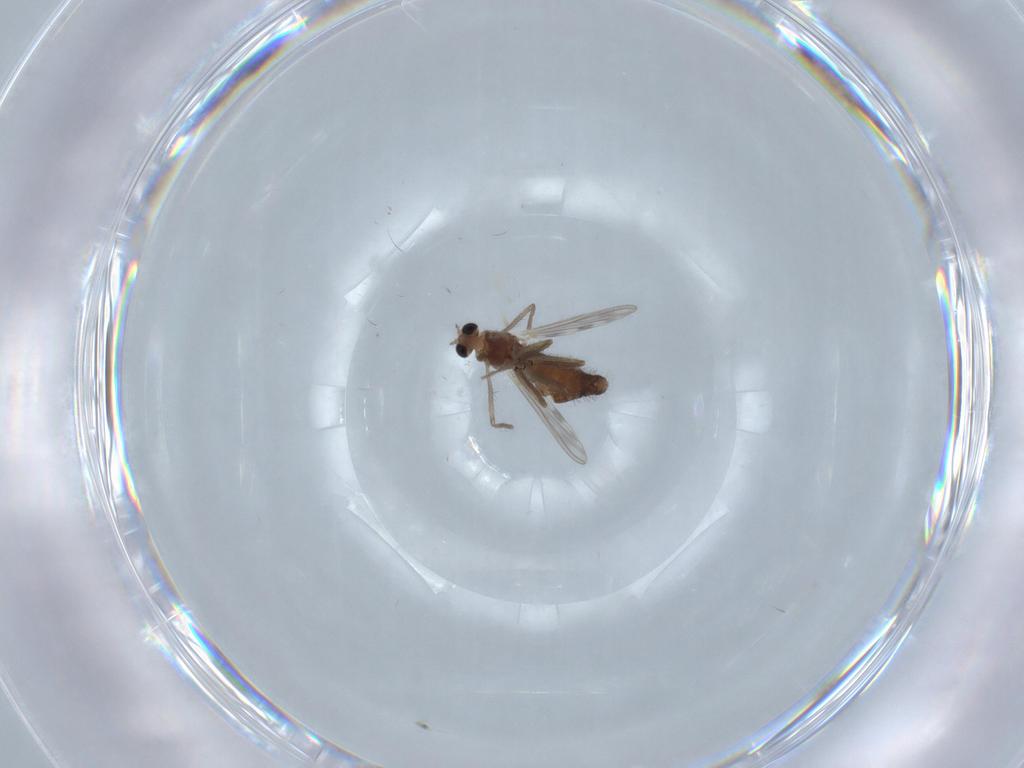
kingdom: Animalia
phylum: Arthropoda
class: Insecta
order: Diptera
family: Chironomidae
